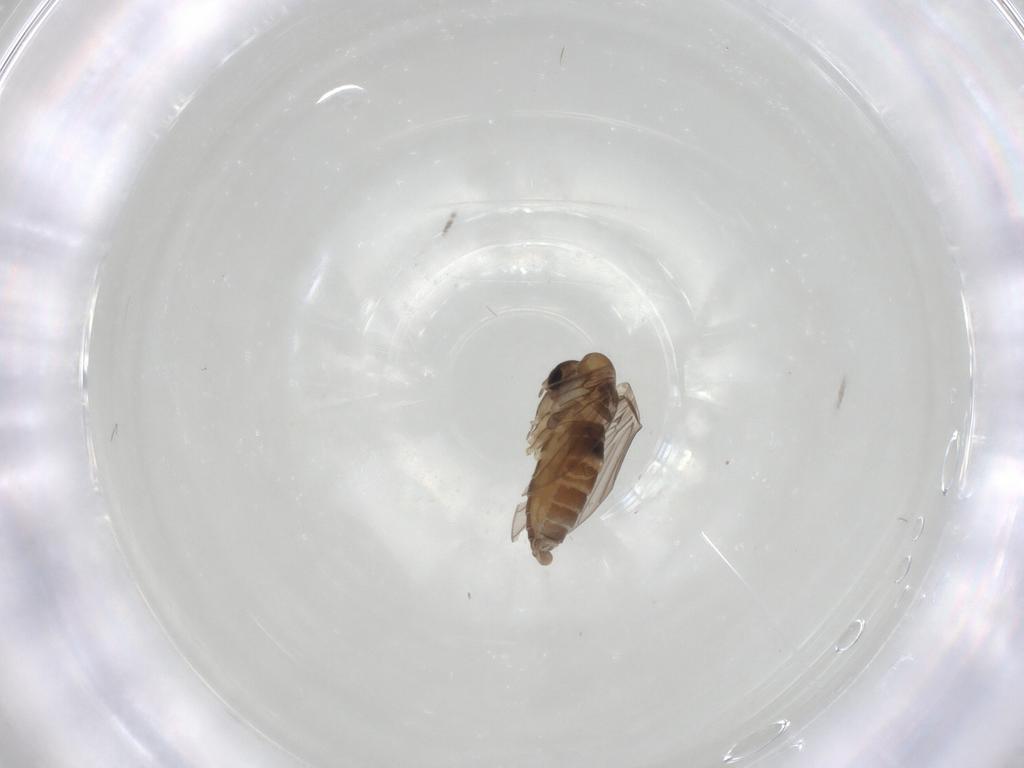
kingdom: Animalia
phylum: Arthropoda
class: Insecta
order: Diptera
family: Psychodidae
